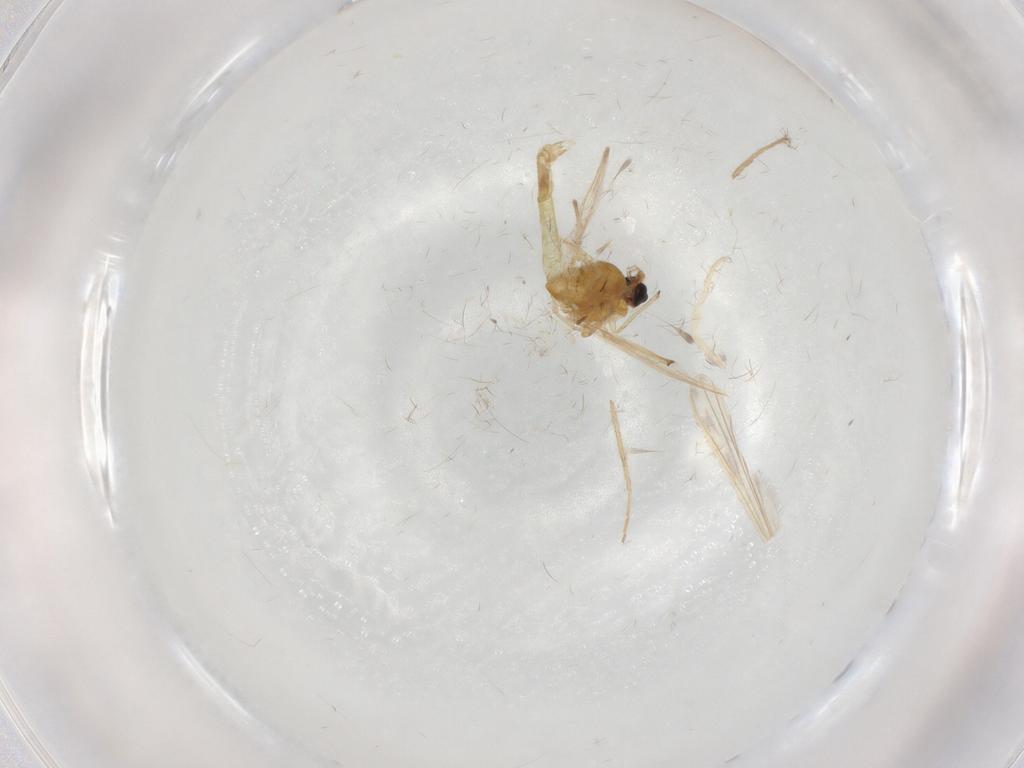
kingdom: Animalia
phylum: Arthropoda
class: Insecta
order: Diptera
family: Chironomidae
